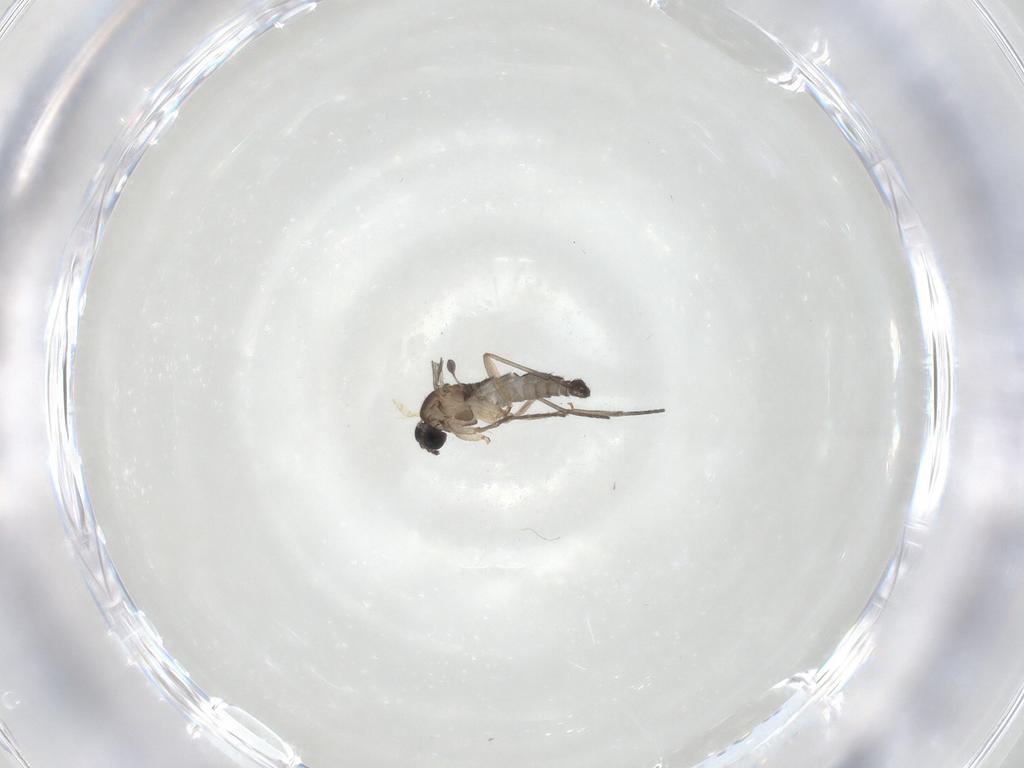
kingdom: Animalia
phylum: Arthropoda
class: Insecta
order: Diptera
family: Sciaridae
